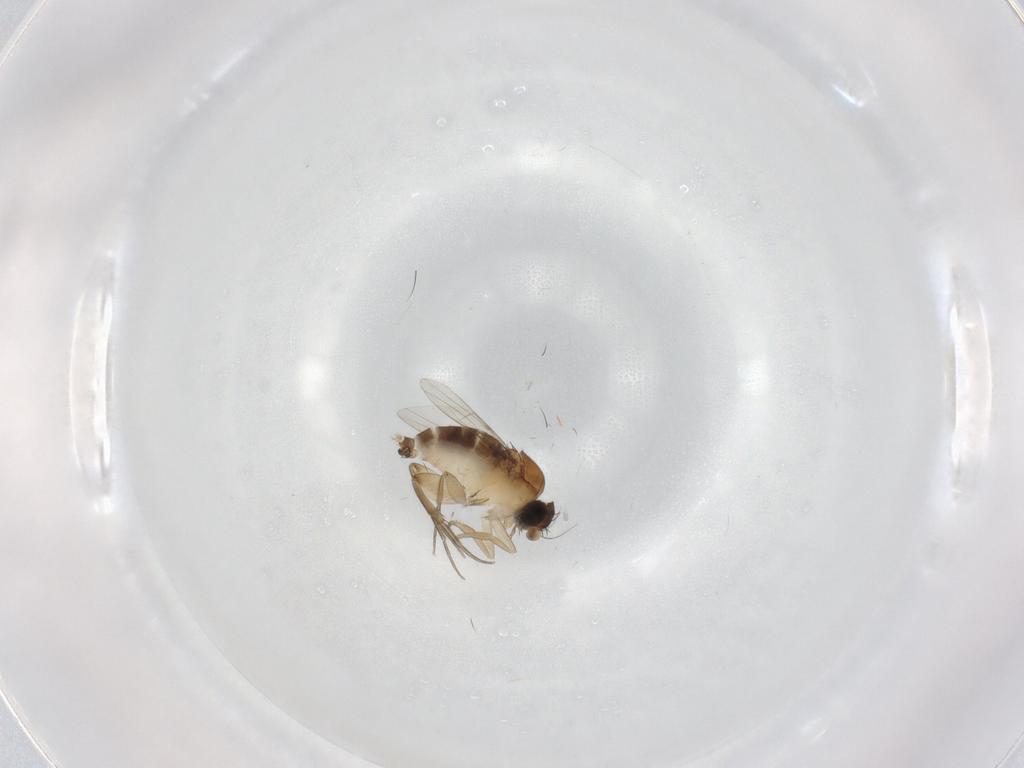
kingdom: Animalia
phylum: Arthropoda
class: Insecta
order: Diptera
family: Phoridae
